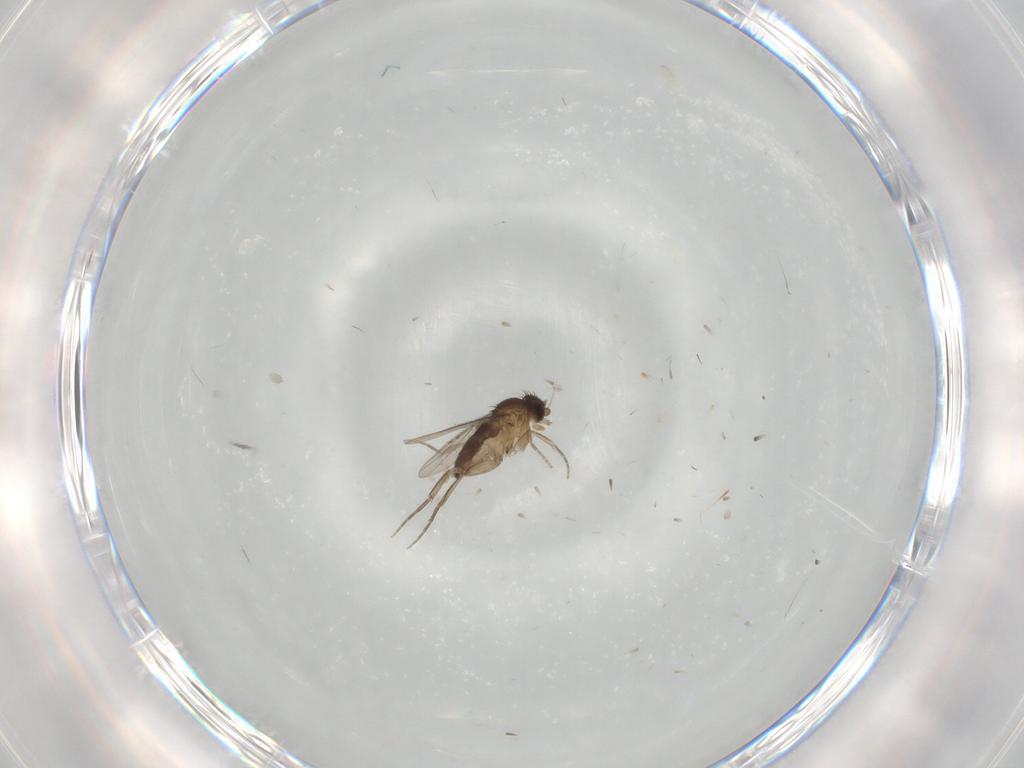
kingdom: Animalia
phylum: Arthropoda
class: Insecta
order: Diptera
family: Phoridae
